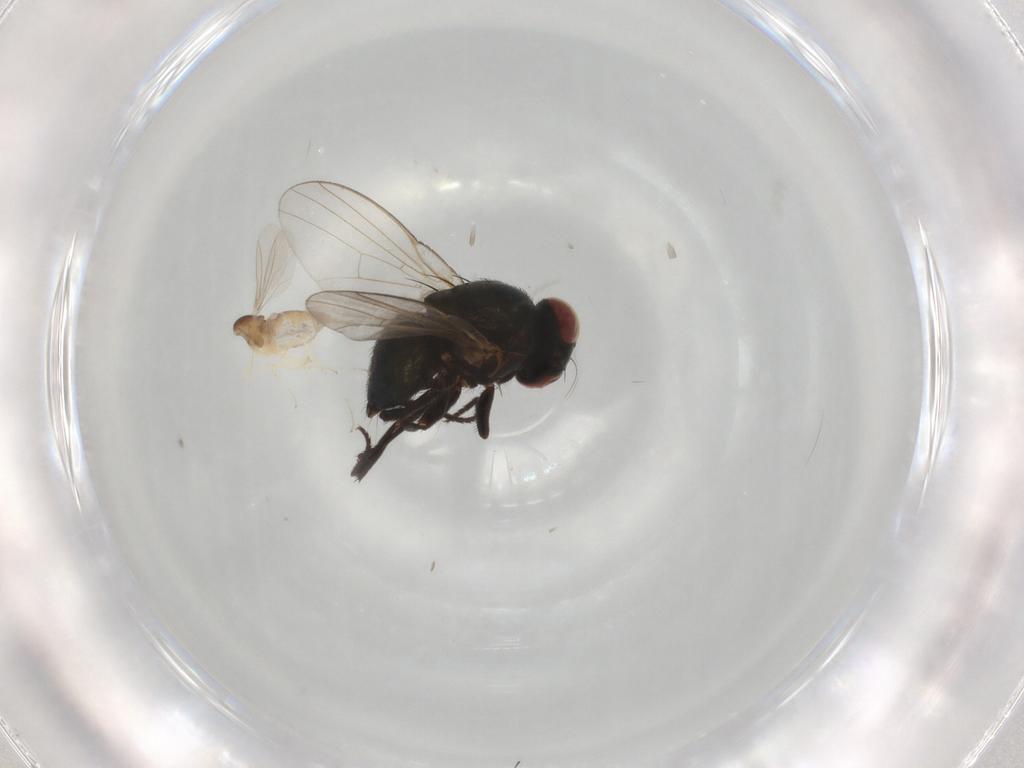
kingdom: Animalia
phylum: Arthropoda
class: Insecta
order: Diptera
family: Cecidomyiidae
